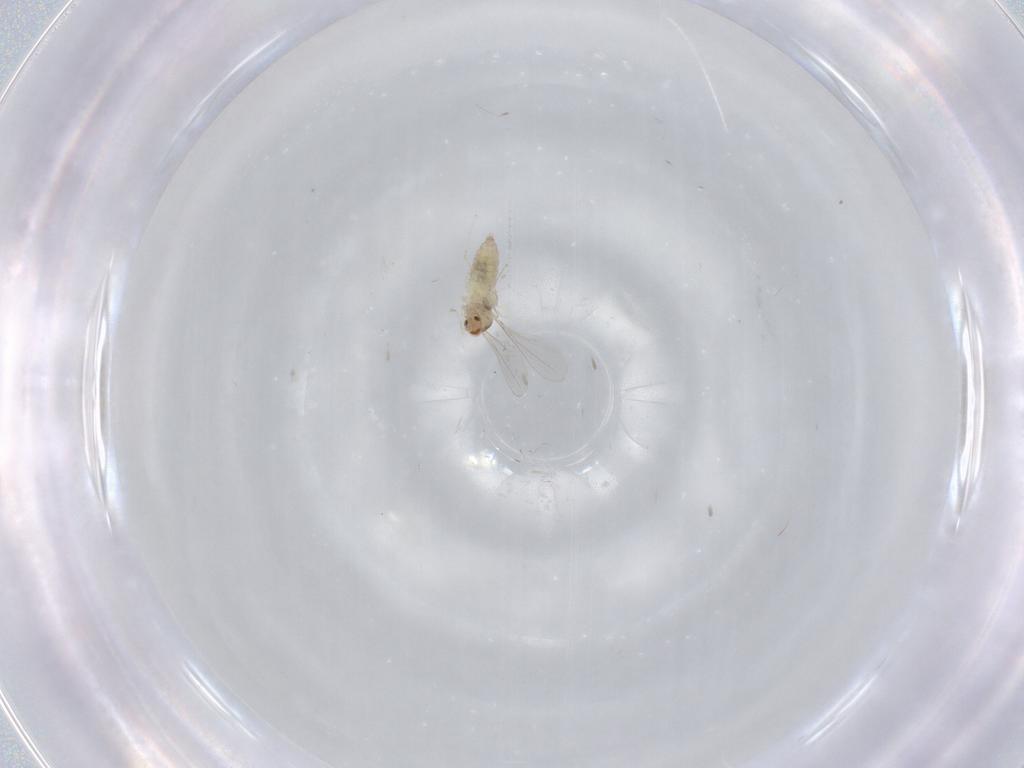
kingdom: Animalia
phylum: Arthropoda
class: Insecta
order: Diptera
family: Cecidomyiidae
